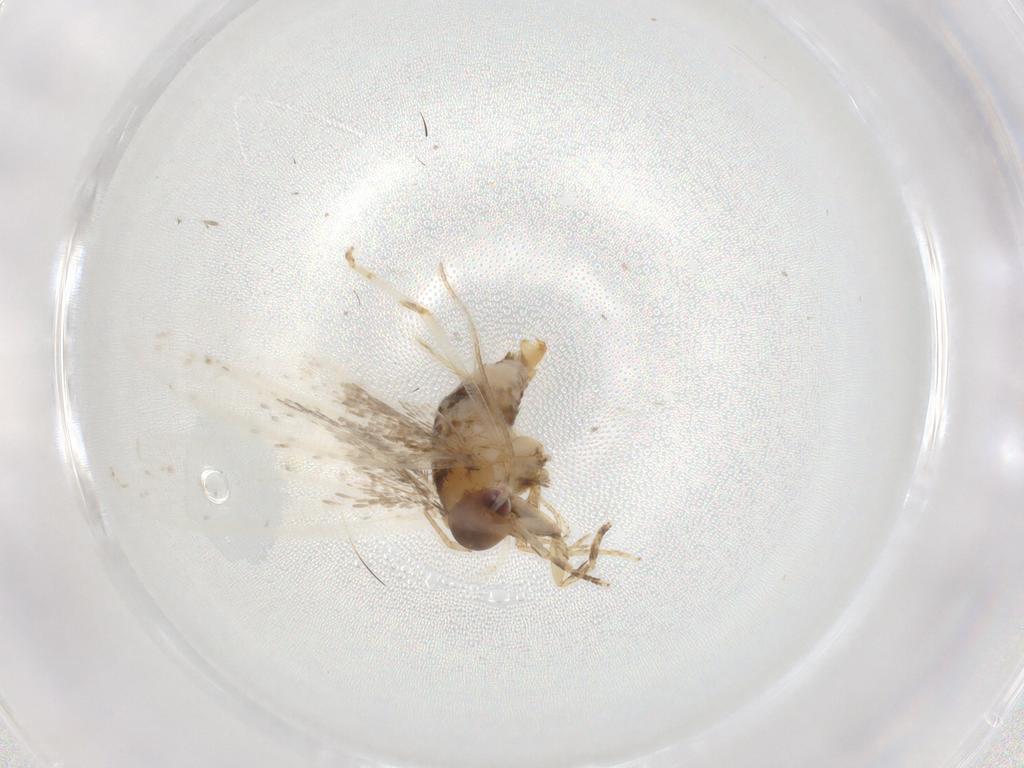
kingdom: Animalia
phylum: Arthropoda
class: Insecta
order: Lepidoptera
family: Oecophoridae
